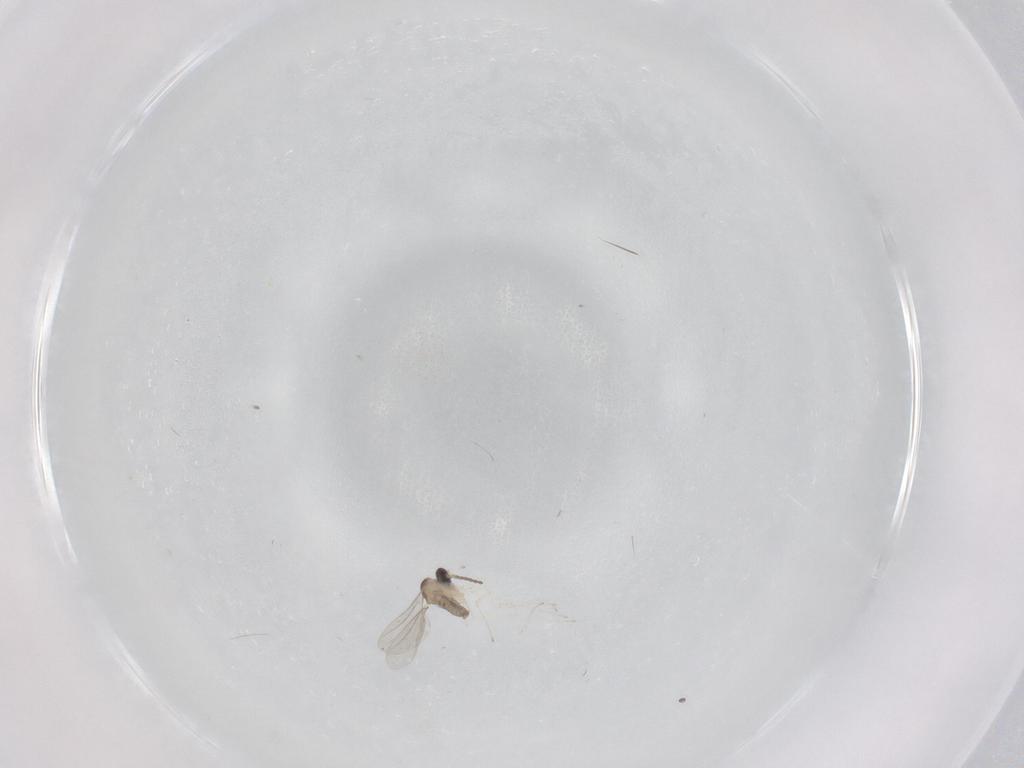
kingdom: Animalia
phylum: Arthropoda
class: Insecta
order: Diptera
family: Cecidomyiidae
